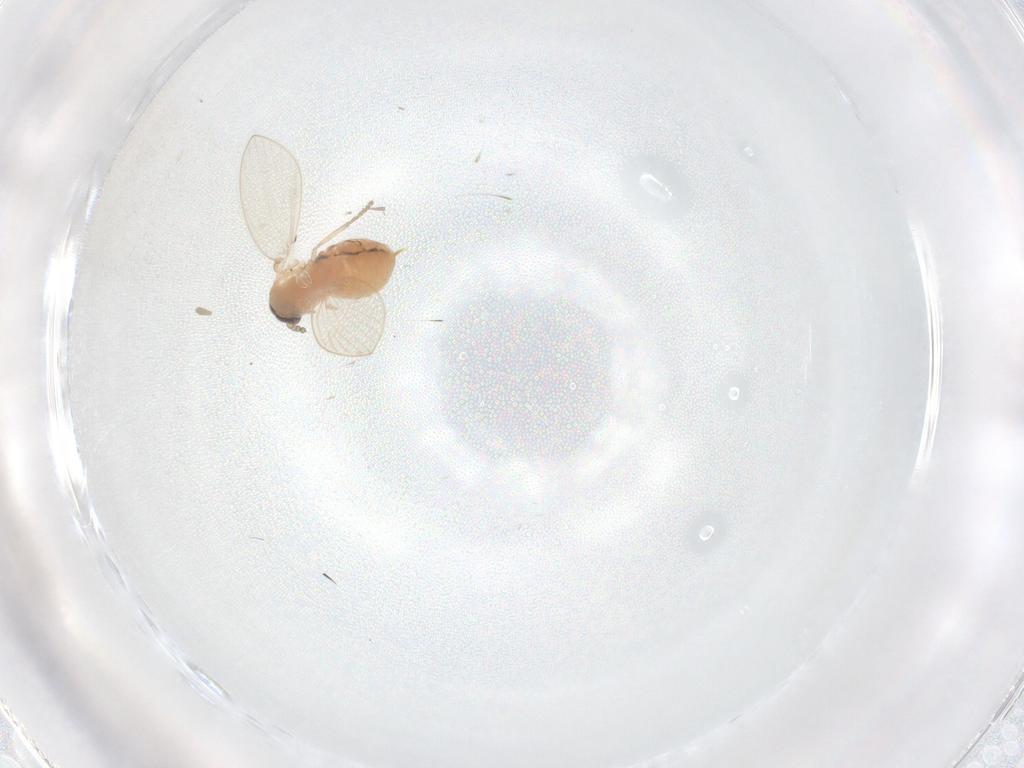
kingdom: Animalia
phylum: Arthropoda
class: Insecta
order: Diptera
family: Psychodidae
